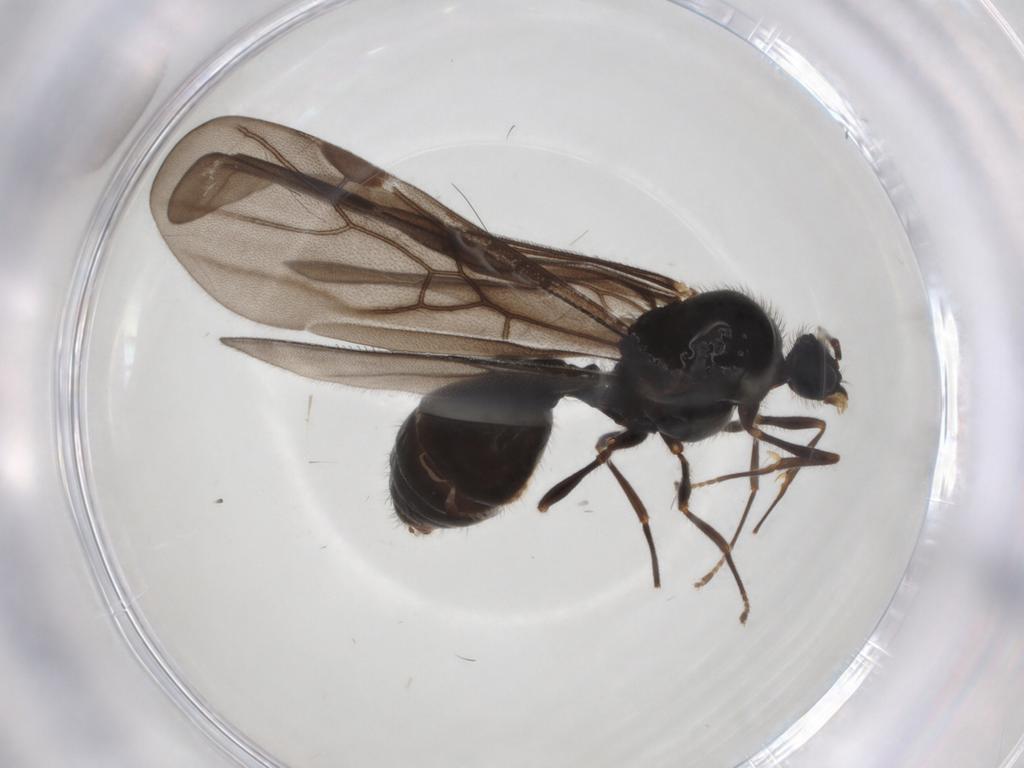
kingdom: Animalia
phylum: Arthropoda
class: Insecta
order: Hymenoptera
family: Formicidae
